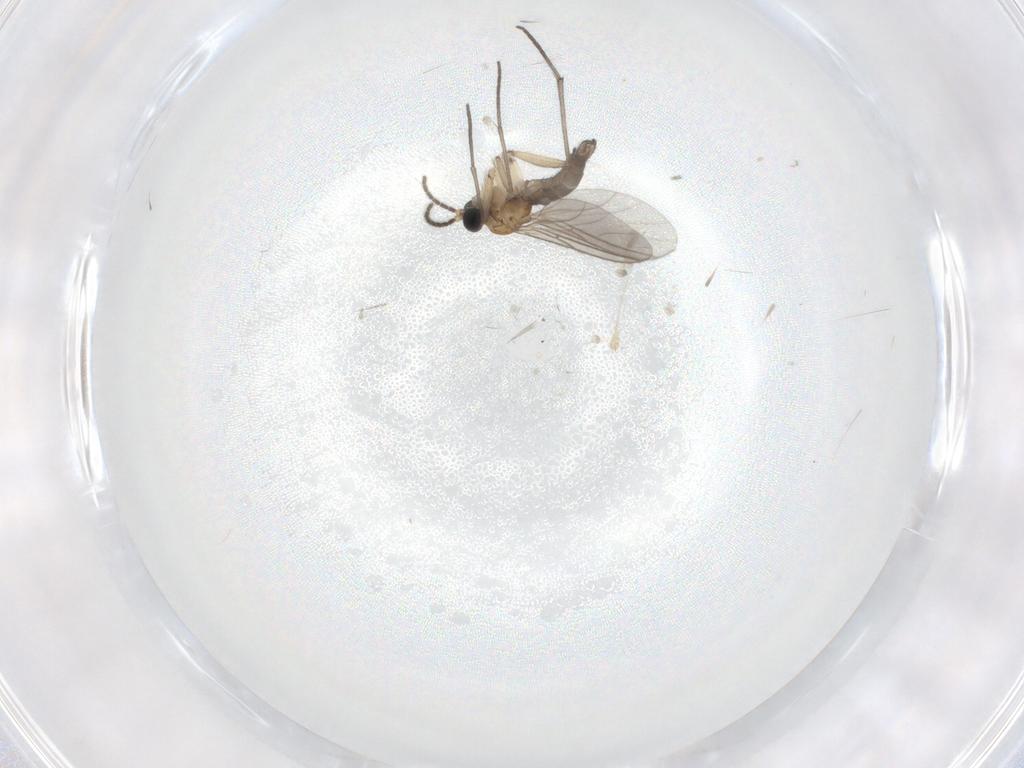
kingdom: Animalia
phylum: Arthropoda
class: Insecta
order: Diptera
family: Sciaridae
